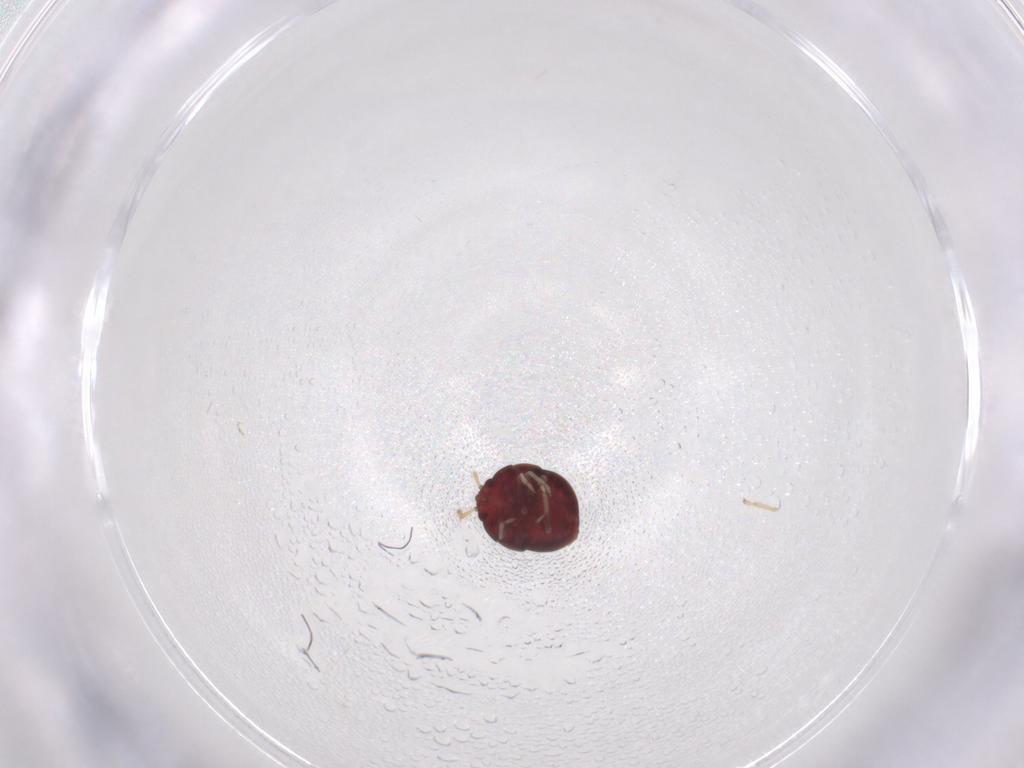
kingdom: Animalia
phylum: Arthropoda
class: Insecta
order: Hemiptera
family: Anthocoridae
